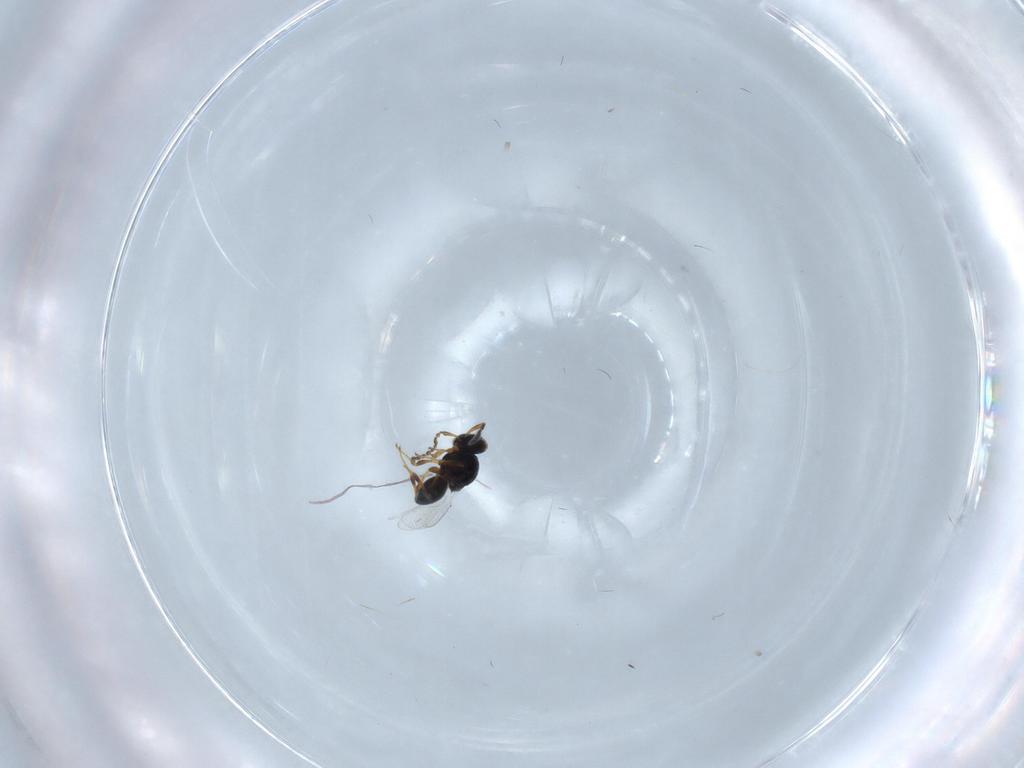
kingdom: Animalia
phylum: Arthropoda
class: Insecta
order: Hymenoptera
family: Platygastridae
